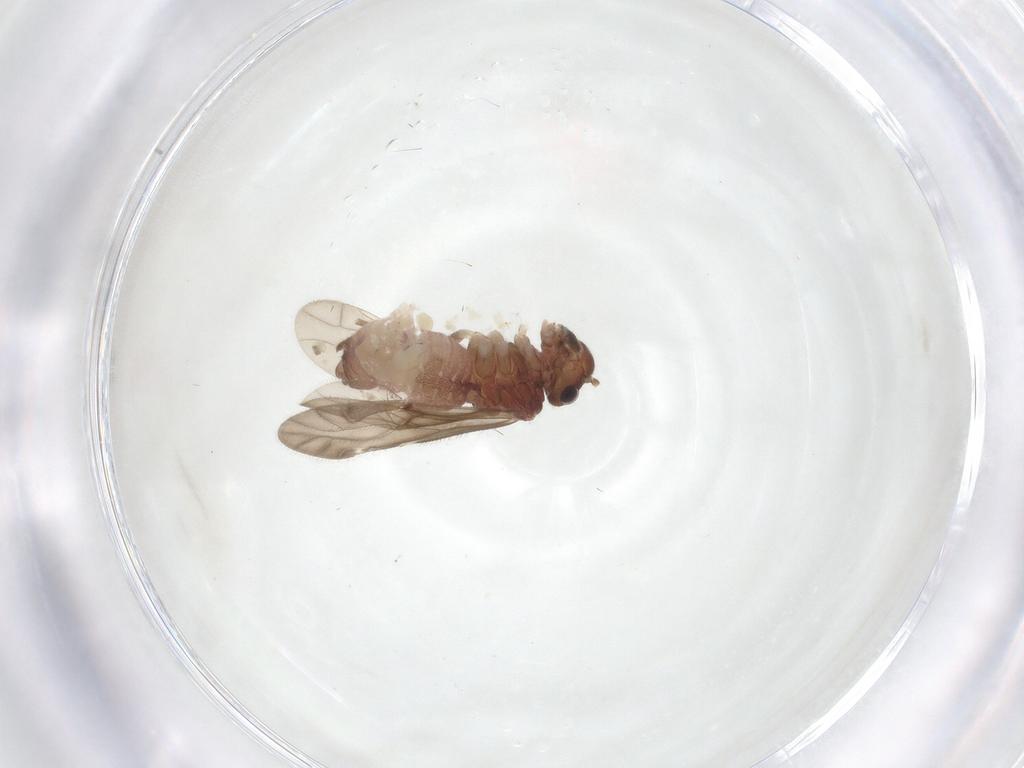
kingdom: Animalia
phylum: Arthropoda
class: Insecta
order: Psocodea
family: Caeciliusidae
